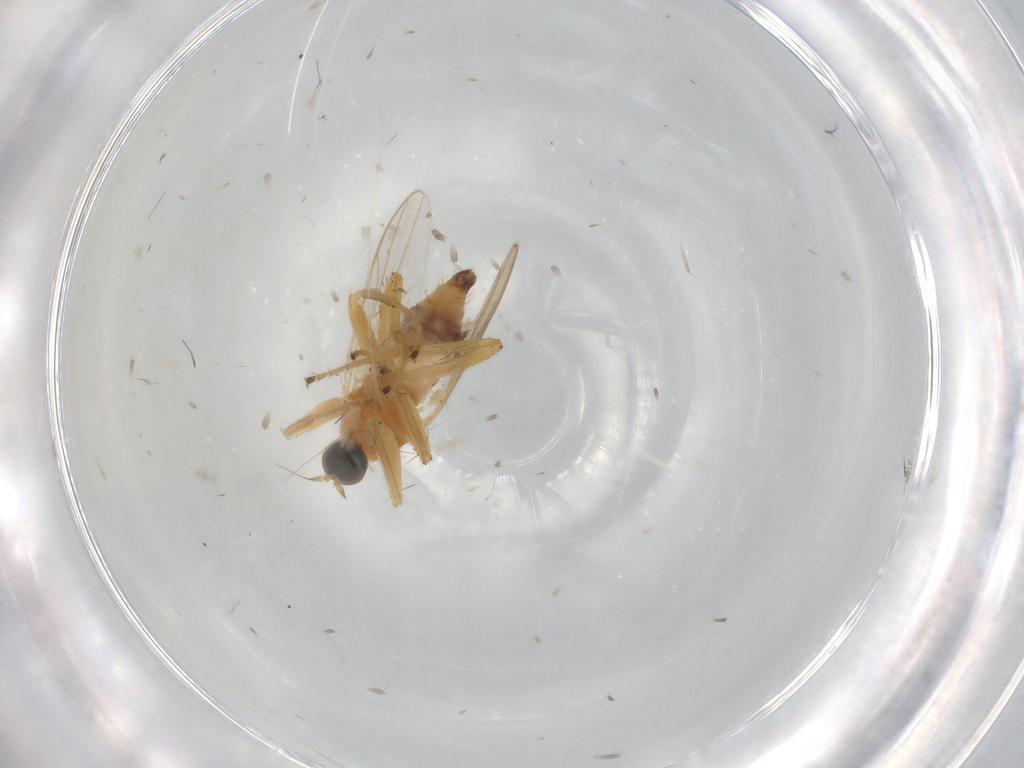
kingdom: Animalia
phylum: Arthropoda
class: Insecta
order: Diptera
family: Hybotidae
